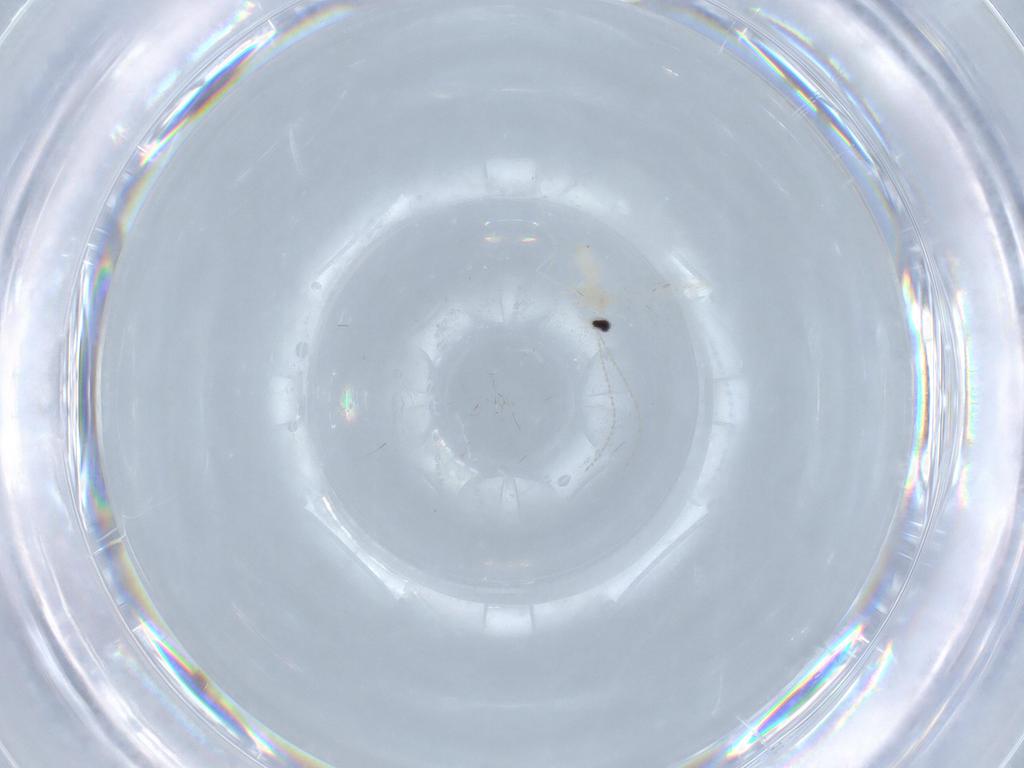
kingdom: Animalia
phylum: Arthropoda
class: Insecta
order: Diptera
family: Cecidomyiidae
